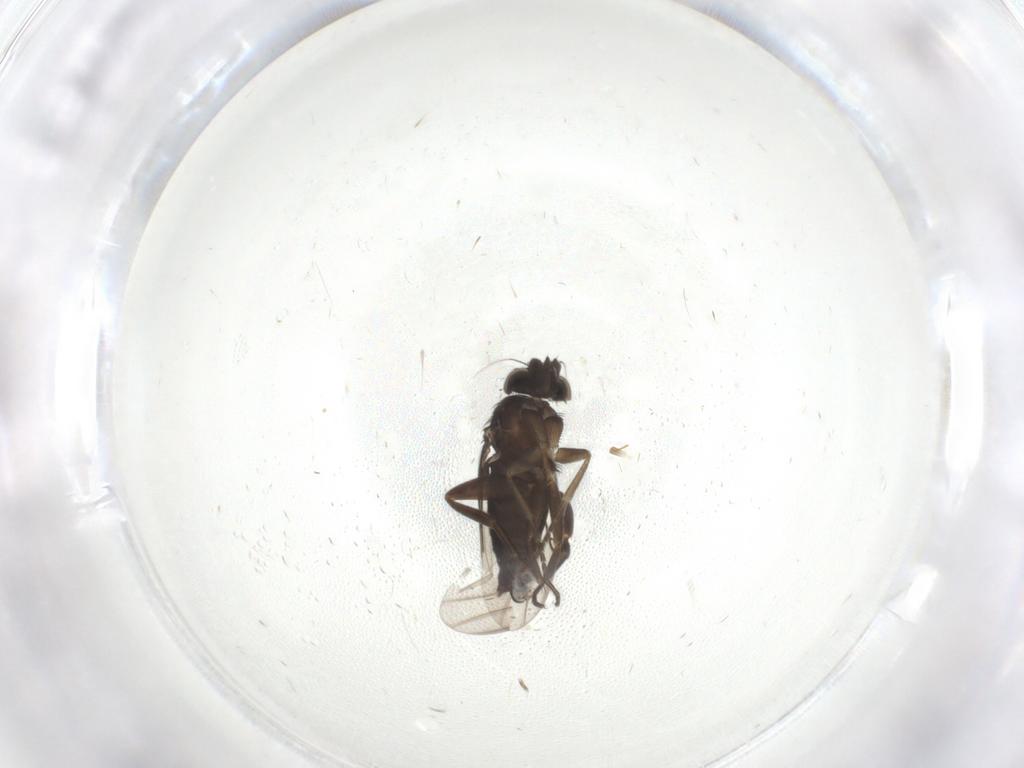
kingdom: Animalia
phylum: Arthropoda
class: Insecta
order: Diptera
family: Phoridae
